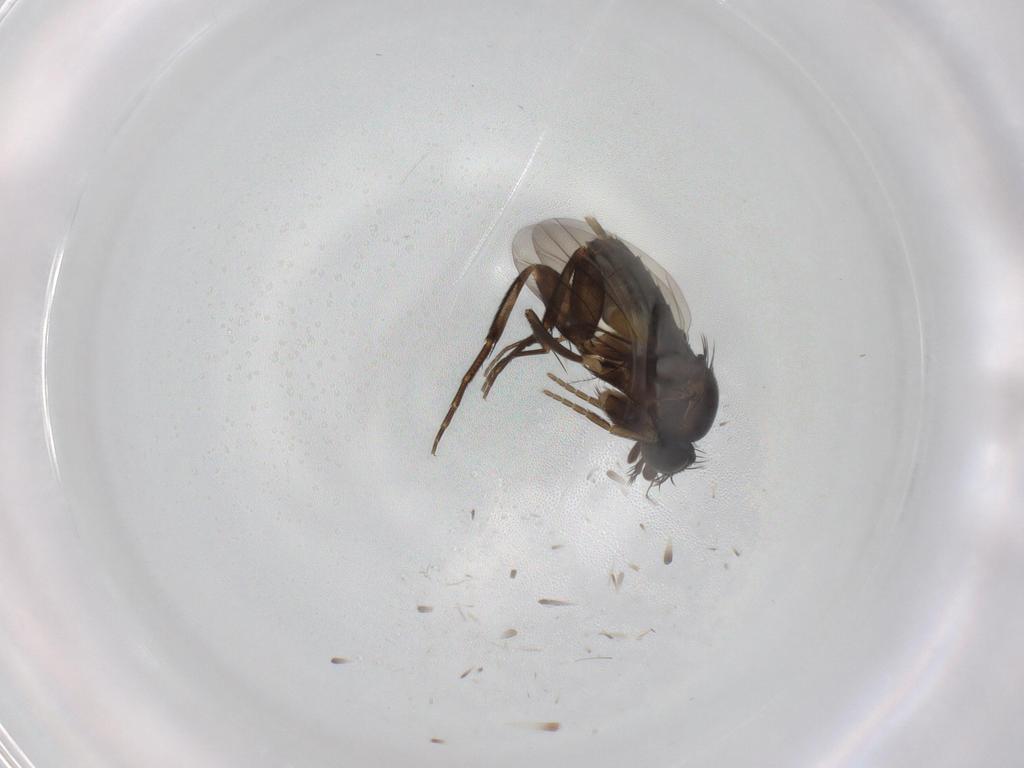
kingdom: Animalia
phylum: Arthropoda
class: Insecta
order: Diptera
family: Phoridae
